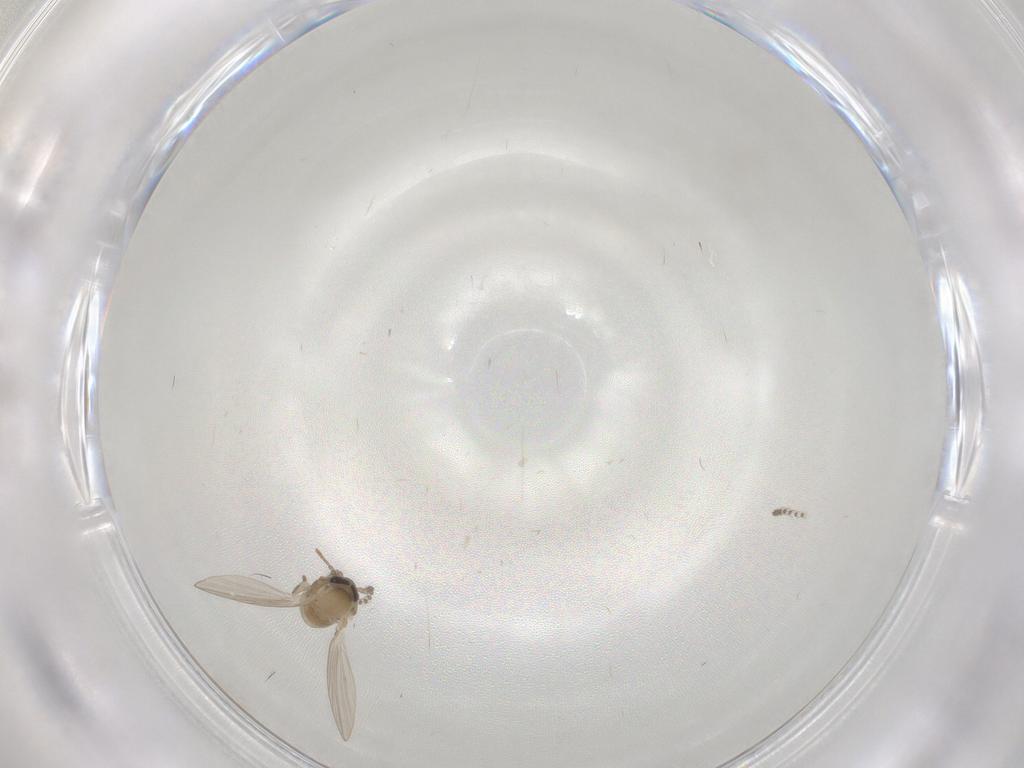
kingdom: Animalia
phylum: Arthropoda
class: Insecta
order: Diptera
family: Psychodidae
